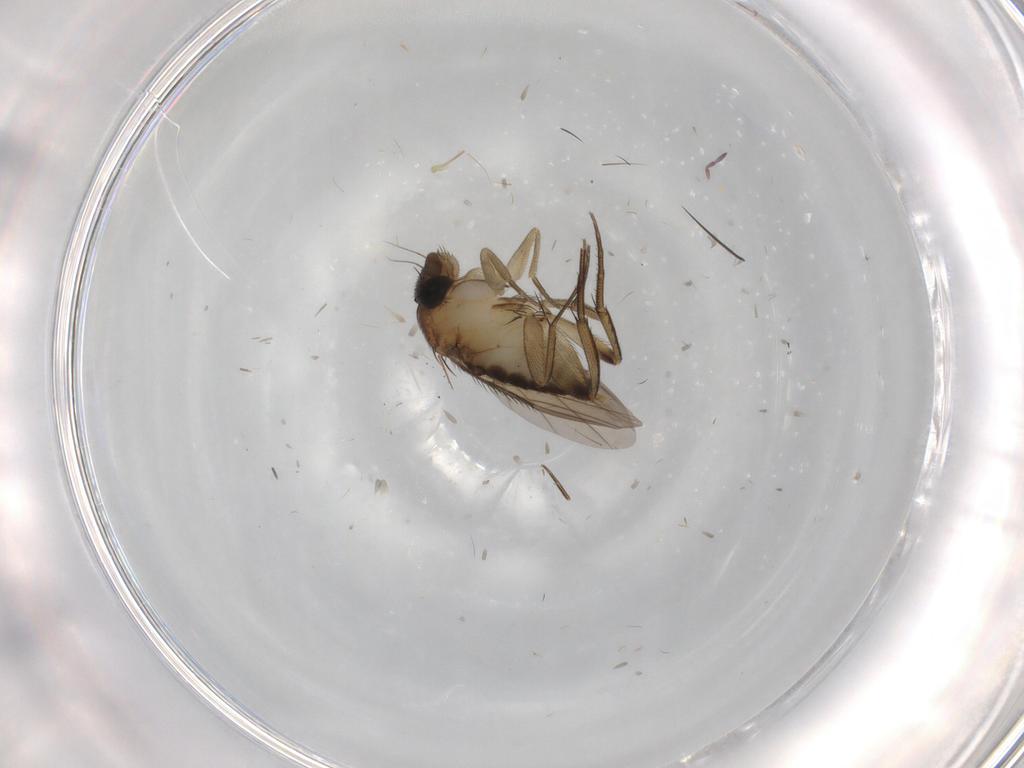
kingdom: Animalia
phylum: Arthropoda
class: Insecta
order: Diptera
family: Phoridae
